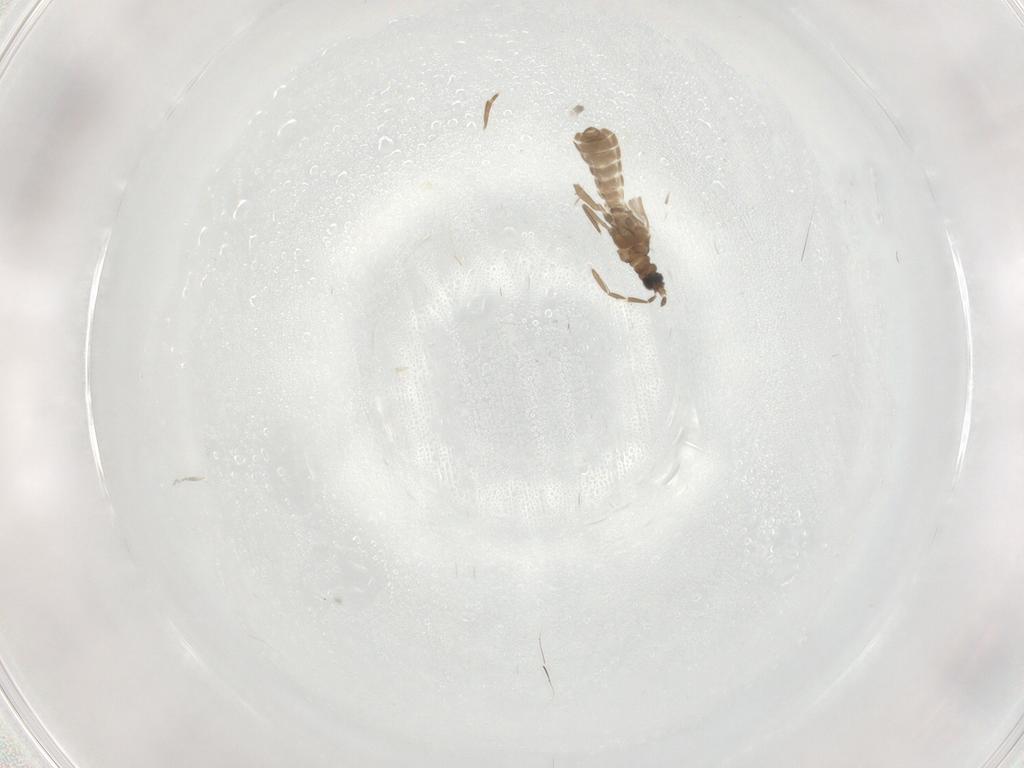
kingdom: Animalia
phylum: Arthropoda
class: Insecta
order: Hemiptera
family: Enicocephalidae
